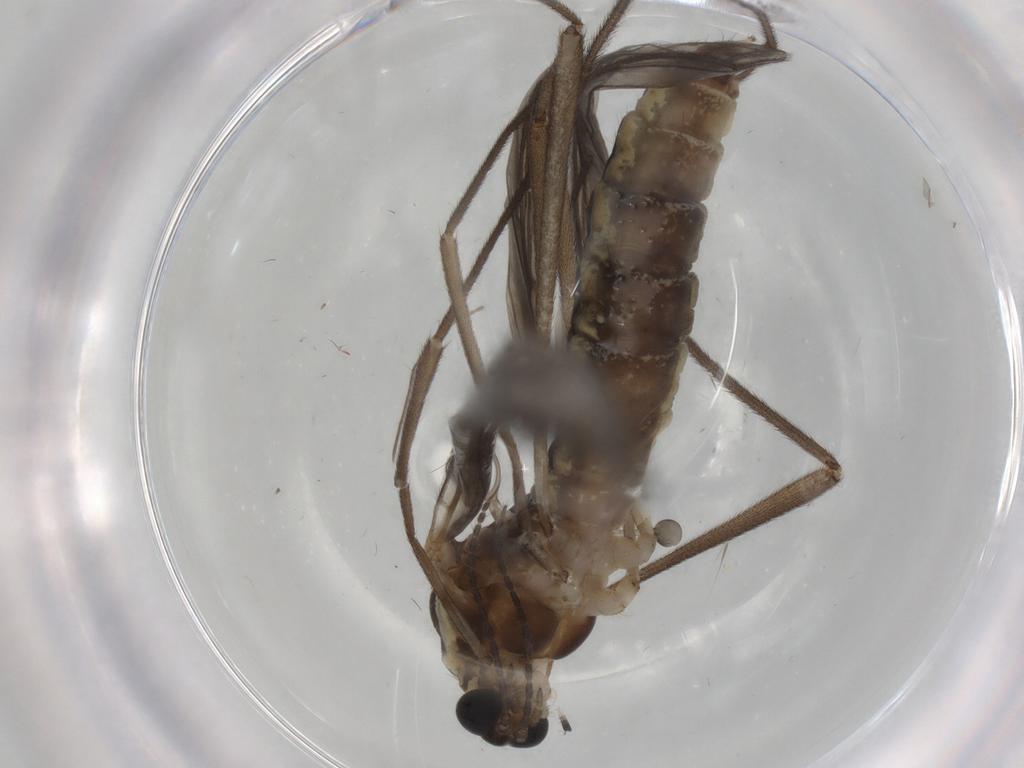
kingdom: Animalia
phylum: Arthropoda
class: Insecta
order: Diptera
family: Limoniidae
